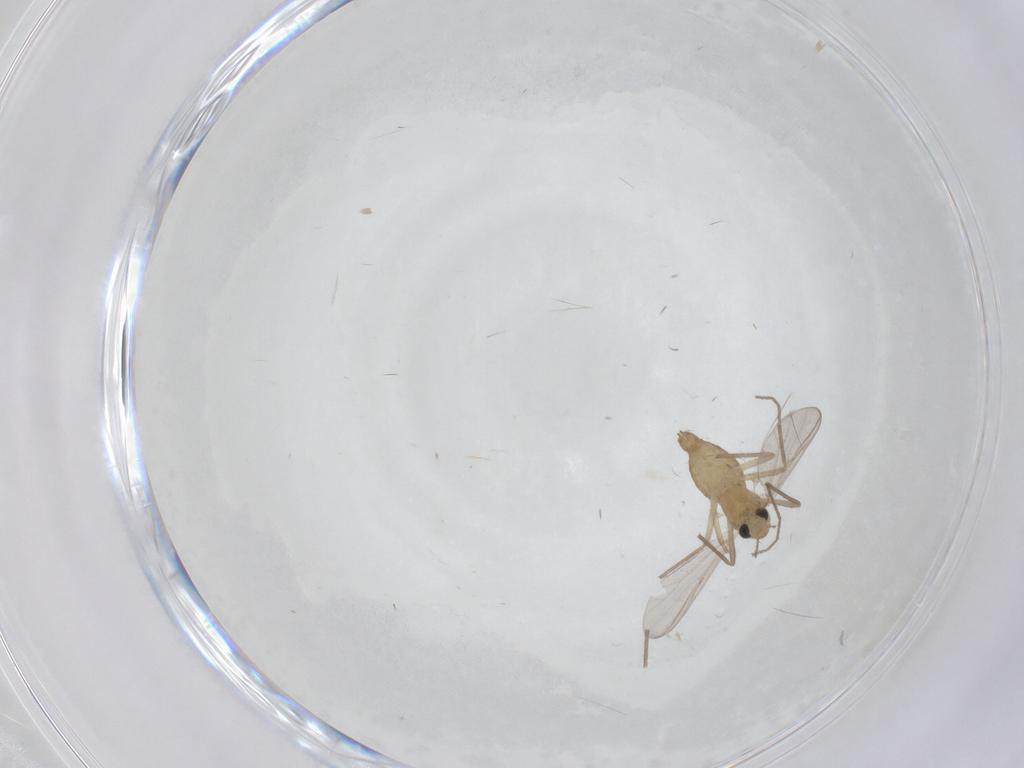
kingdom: Animalia
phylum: Arthropoda
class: Insecta
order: Diptera
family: Chironomidae
